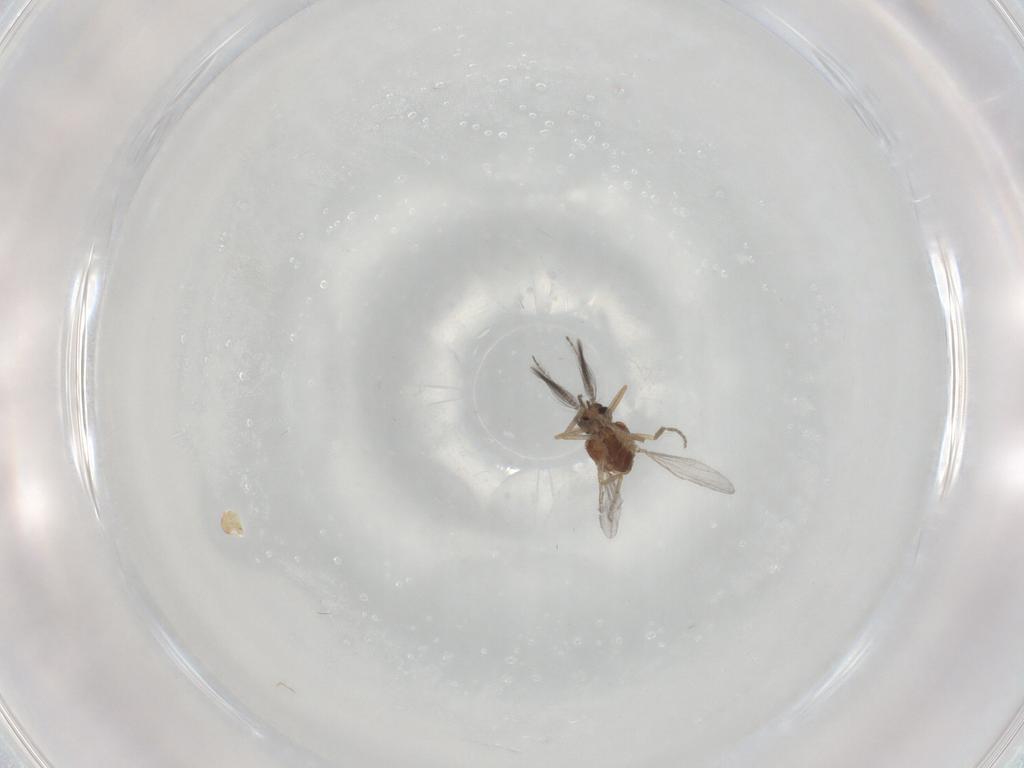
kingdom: Animalia
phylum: Arthropoda
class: Insecta
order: Diptera
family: Ceratopogonidae
